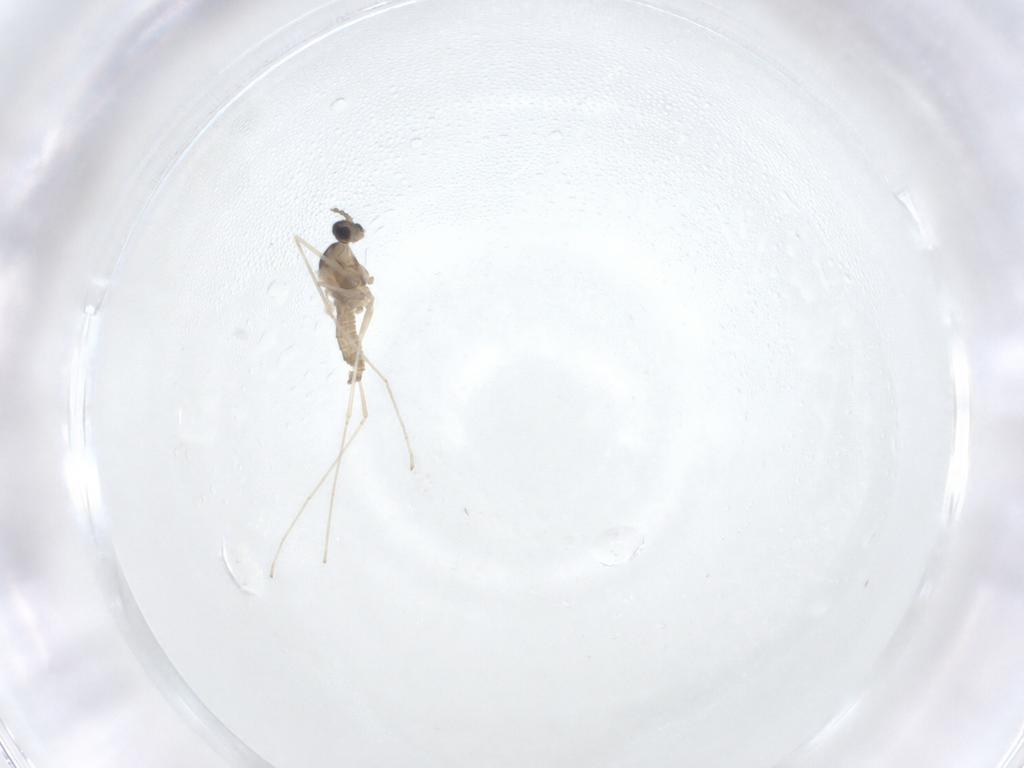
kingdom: Animalia
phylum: Arthropoda
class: Insecta
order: Diptera
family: Cecidomyiidae
